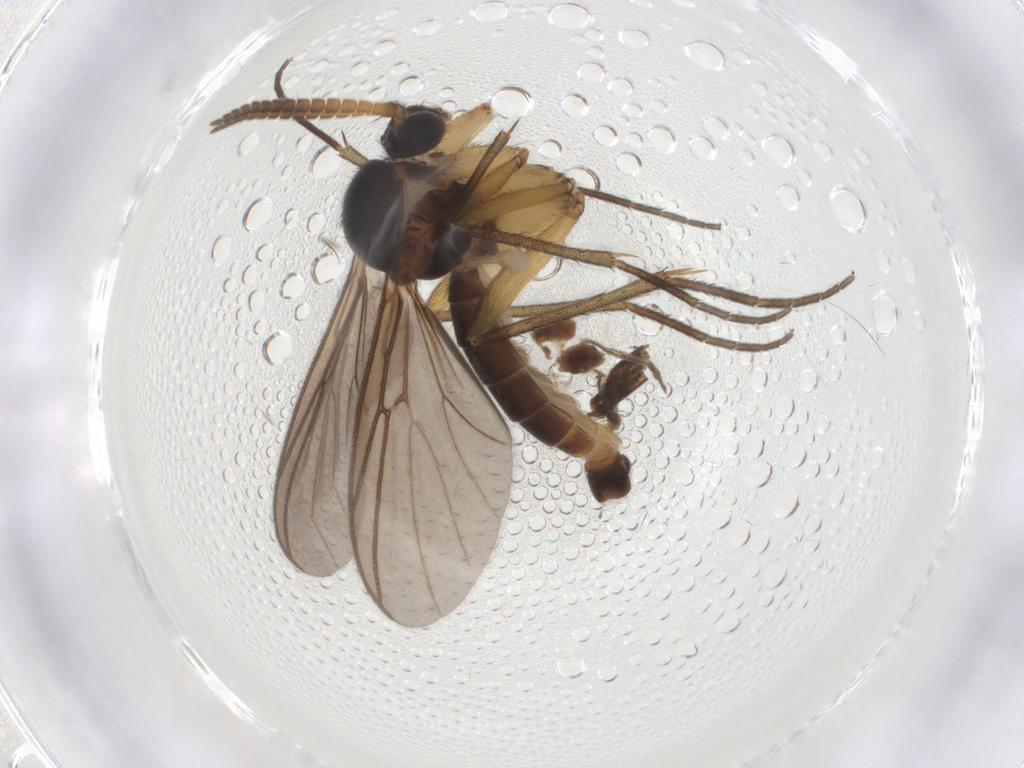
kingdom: Animalia
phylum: Arthropoda
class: Insecta
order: Diptera
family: Mycetophilidae
